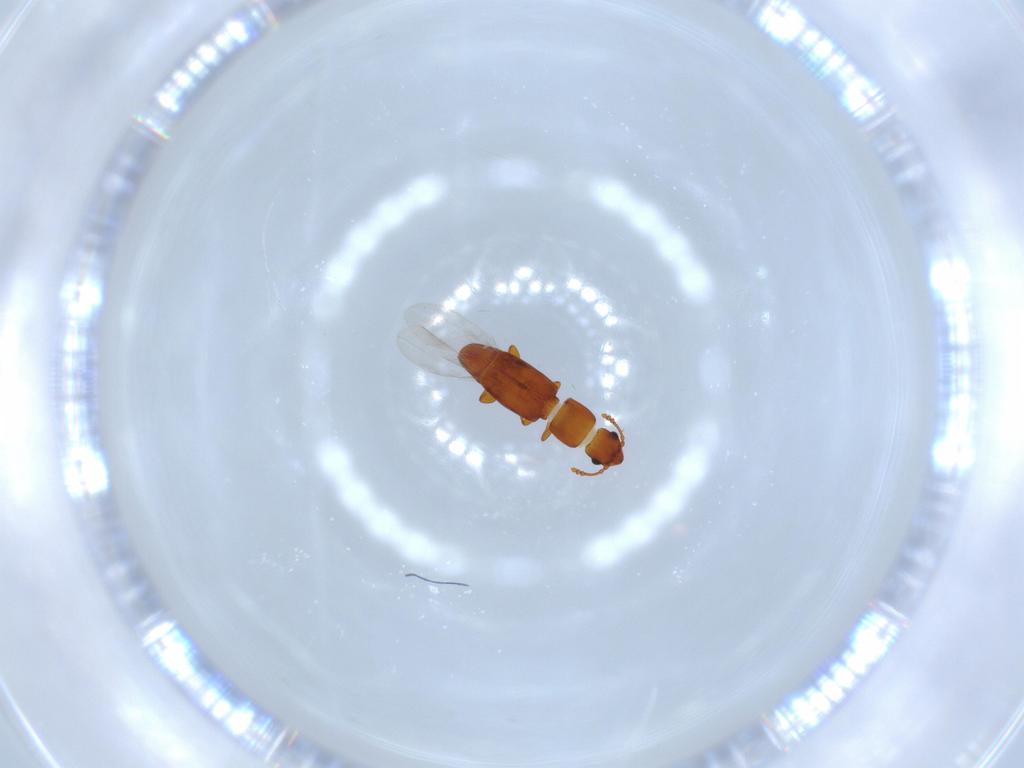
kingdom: Animalia
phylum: Arthropoda
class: Insecta
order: Coleoptera
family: Smicripidae
